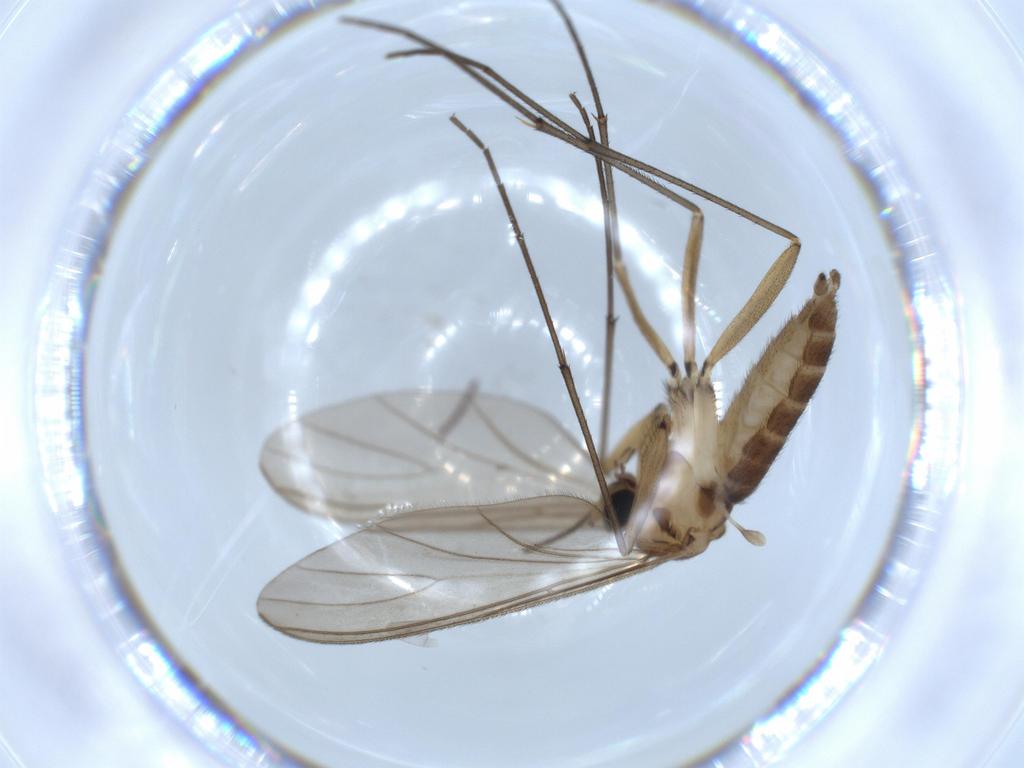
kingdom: Animalia
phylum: Arthropoda
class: Insecta
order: Diptera
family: Sciaridae
